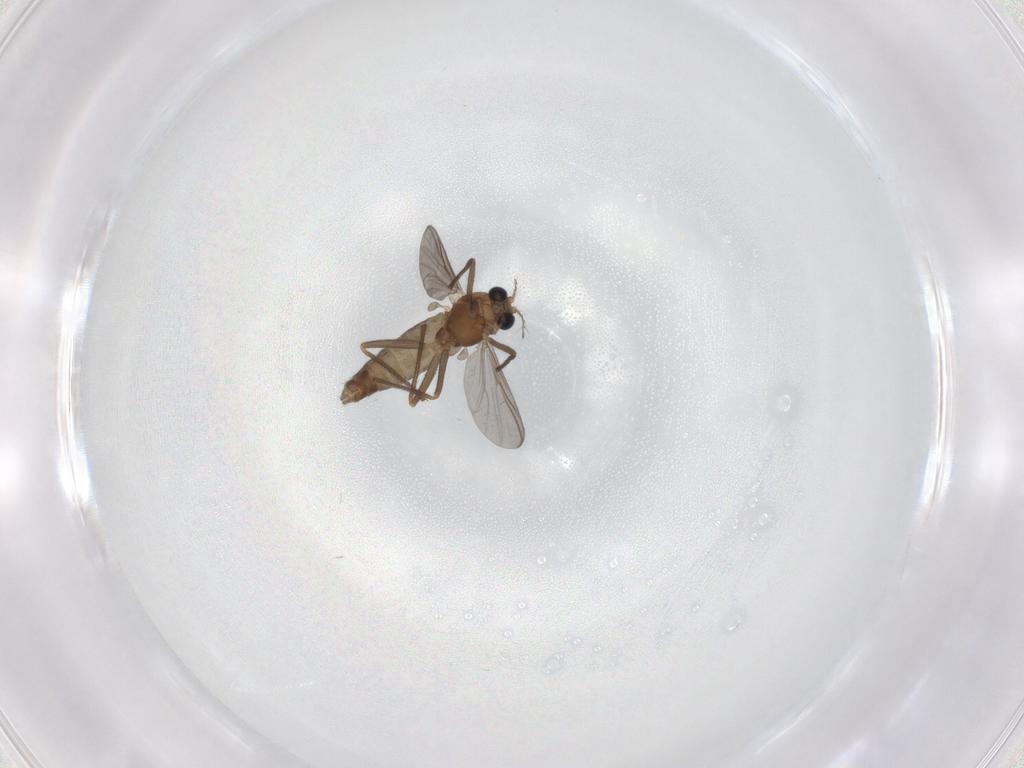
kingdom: Animalia
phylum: Arthropoda
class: Insecta
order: Diptera
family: Chironomidae
